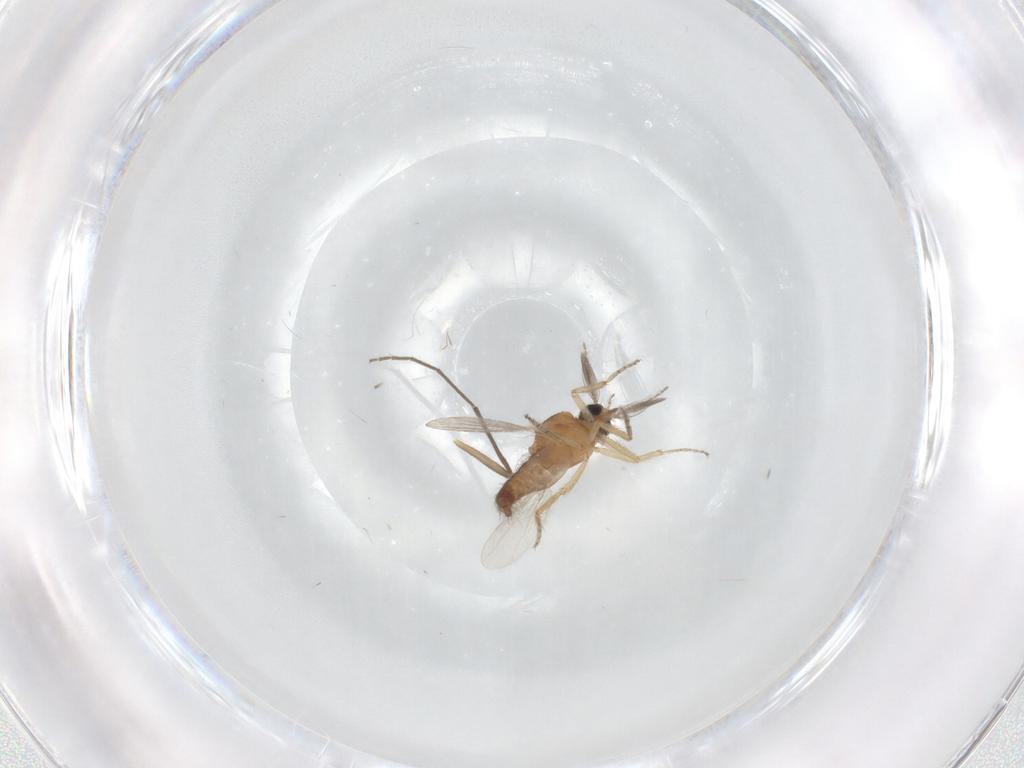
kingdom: Animalia
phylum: Arthropoda
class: Insecta
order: Diptera
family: Ceratopogonidae
